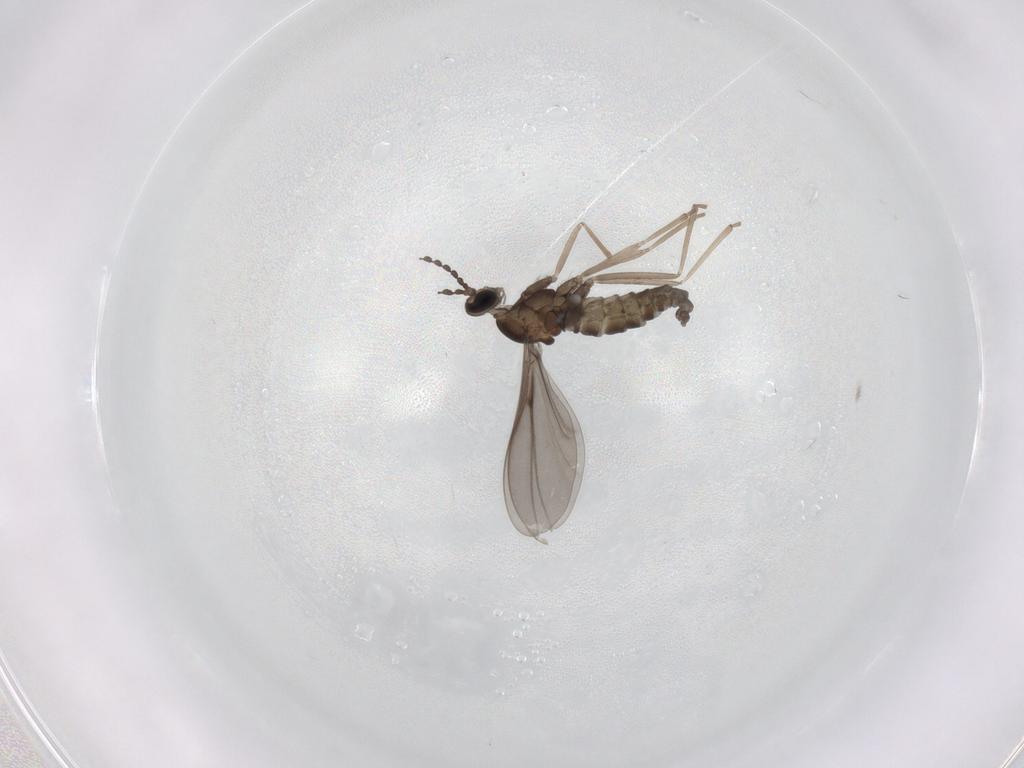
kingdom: Animalia
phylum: Arthropoda
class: Insecta
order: Diptera
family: Cecidomyiidae
